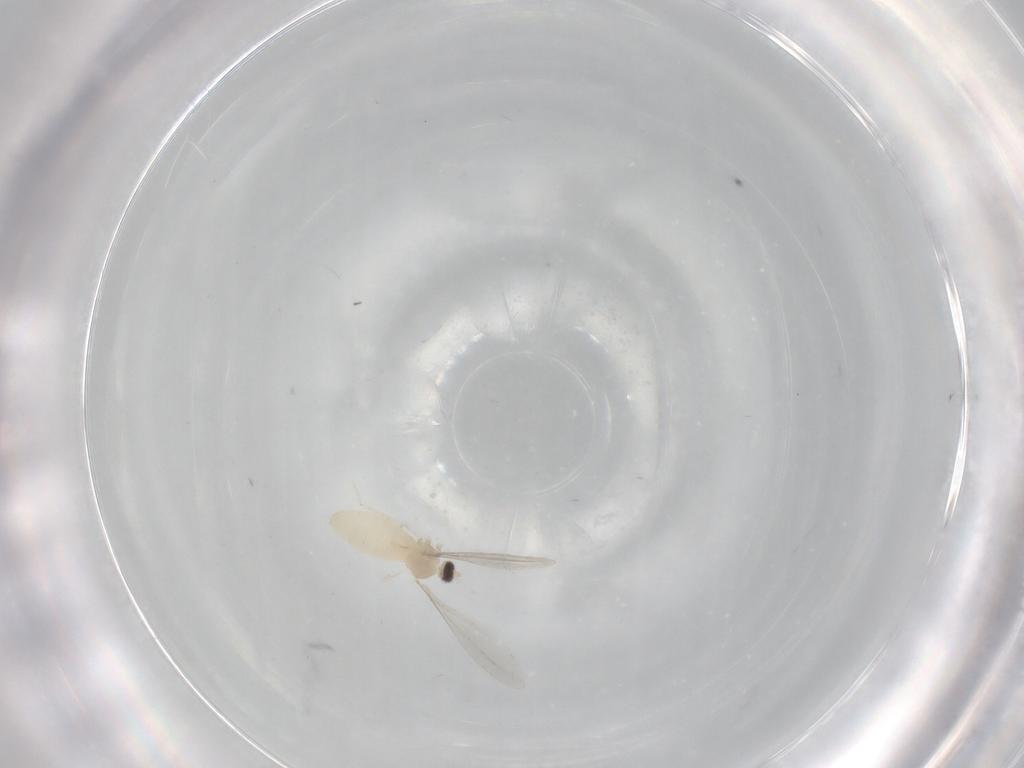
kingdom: Animalia
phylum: Arthropoda
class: Insecta
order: Diptera
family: Cecidomyiidae
